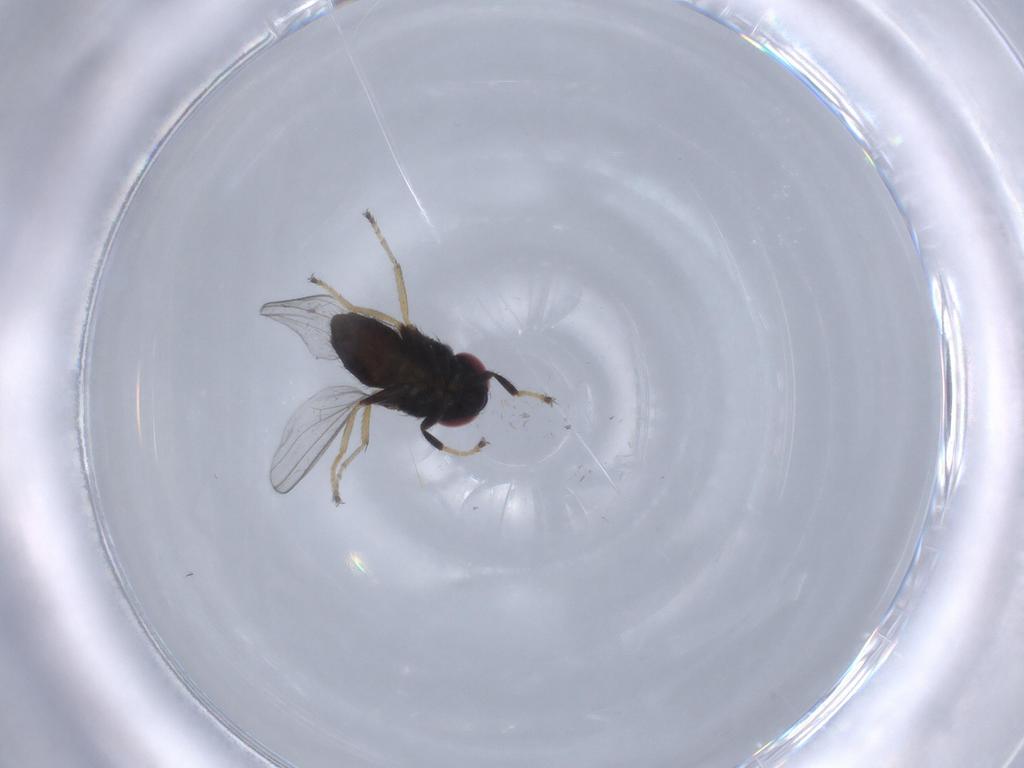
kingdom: Animalia
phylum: Arthropoda
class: Insecta
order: Diptera
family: Ephydridae
